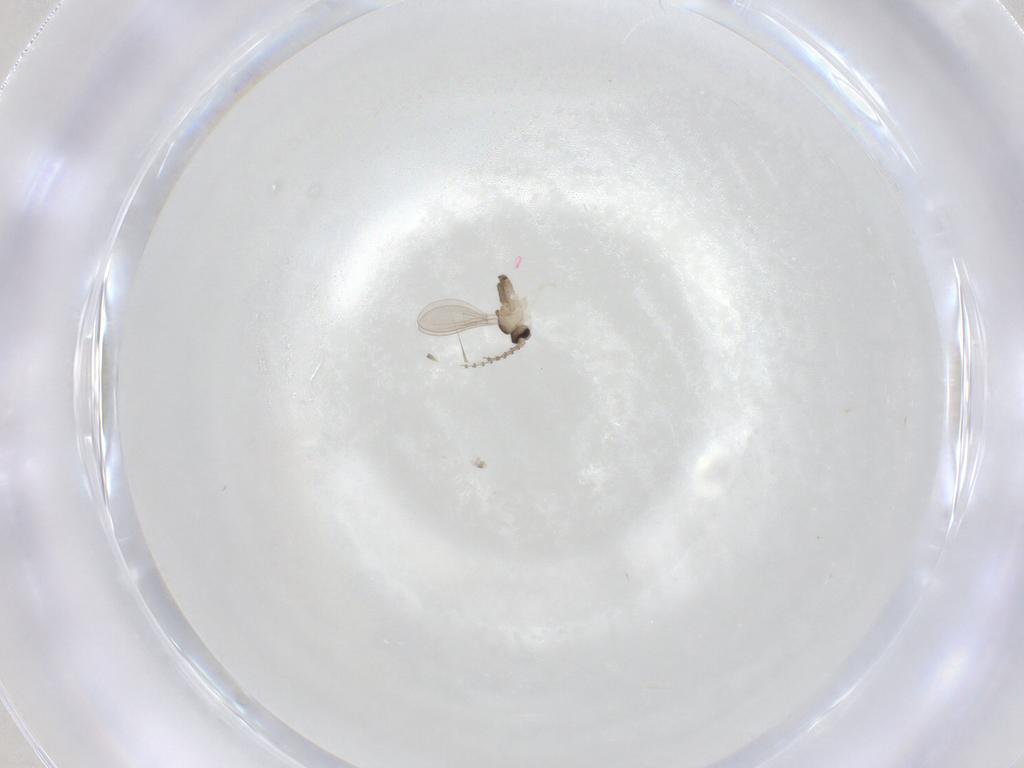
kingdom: Animalia
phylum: Arthropoda
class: Insecta
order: Diptera
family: Cecidomyiidae
